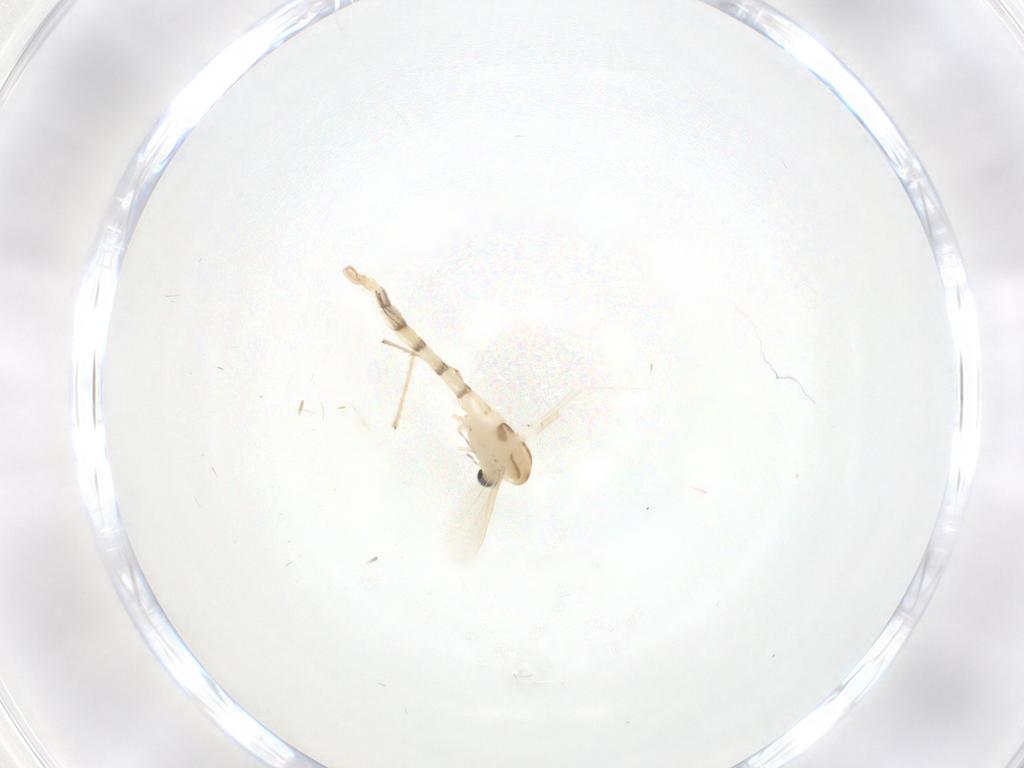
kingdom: Animalia
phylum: Arthropoda
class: Insecta
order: Diptera
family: Chironomidae
